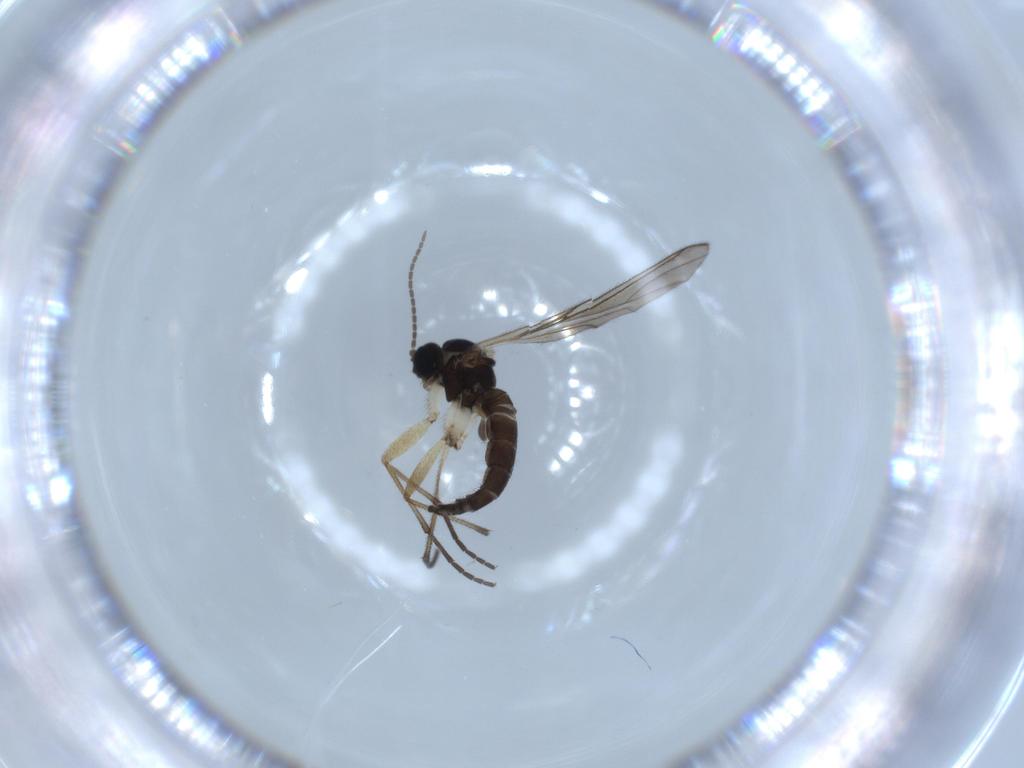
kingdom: Animalia
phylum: Arthropoda
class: Insecta
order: Diptera
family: Sciaridae
